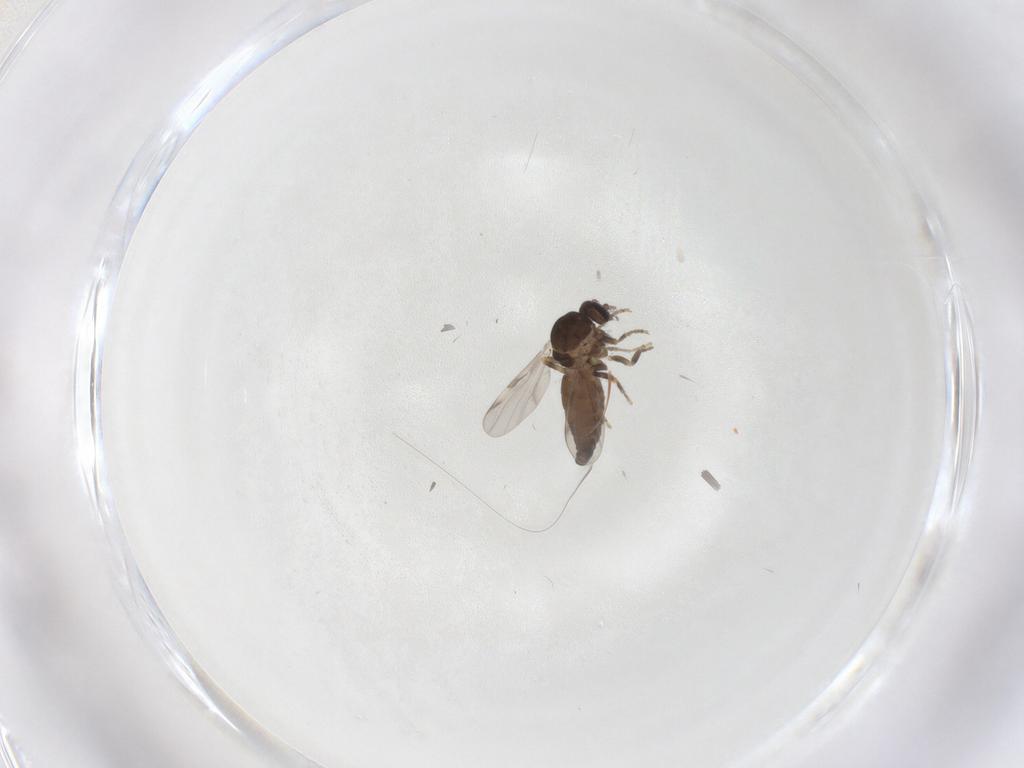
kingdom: Animalia
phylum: Arthropoda
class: Insecta
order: Diptera
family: Ceratopogonidae
